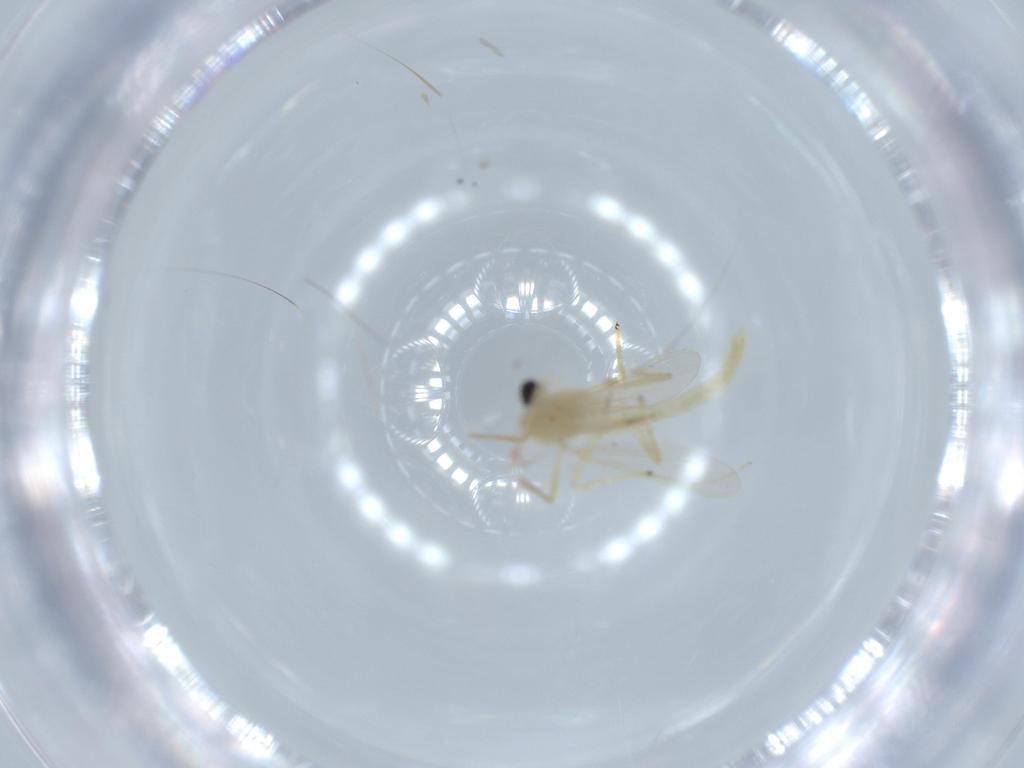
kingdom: Animalia
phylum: Arthropoda
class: Insecta
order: Diptera
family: Chironomidae
